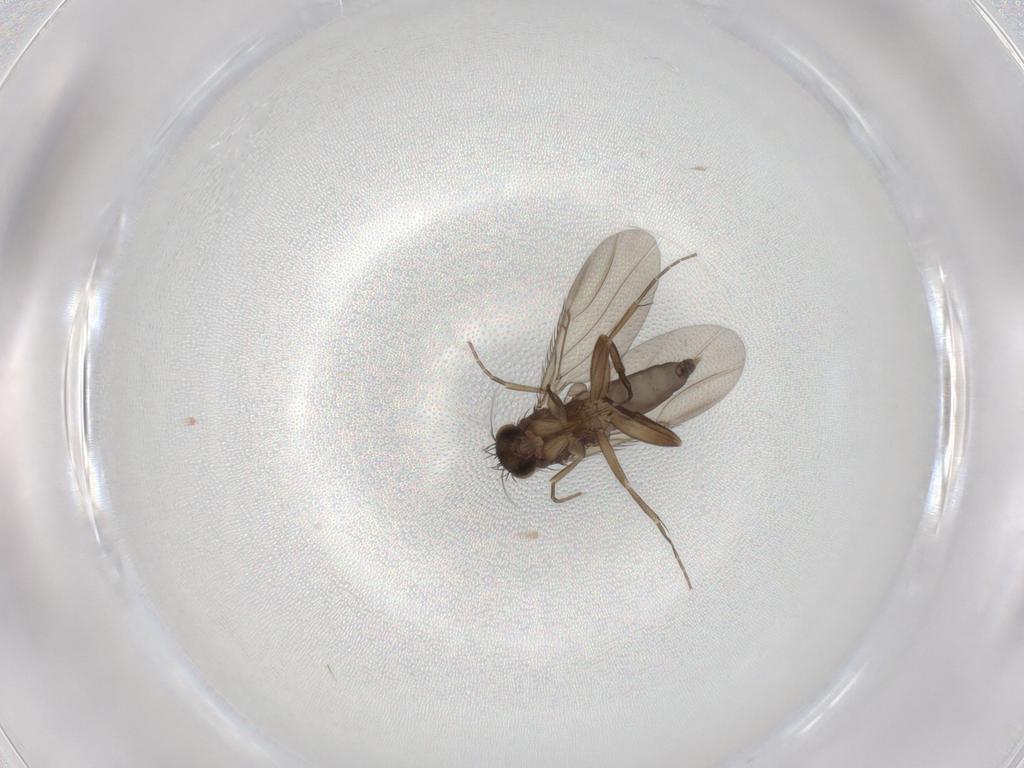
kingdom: Animalia
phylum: Arthropoda
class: Insecta
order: Diptera
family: Phoridae
